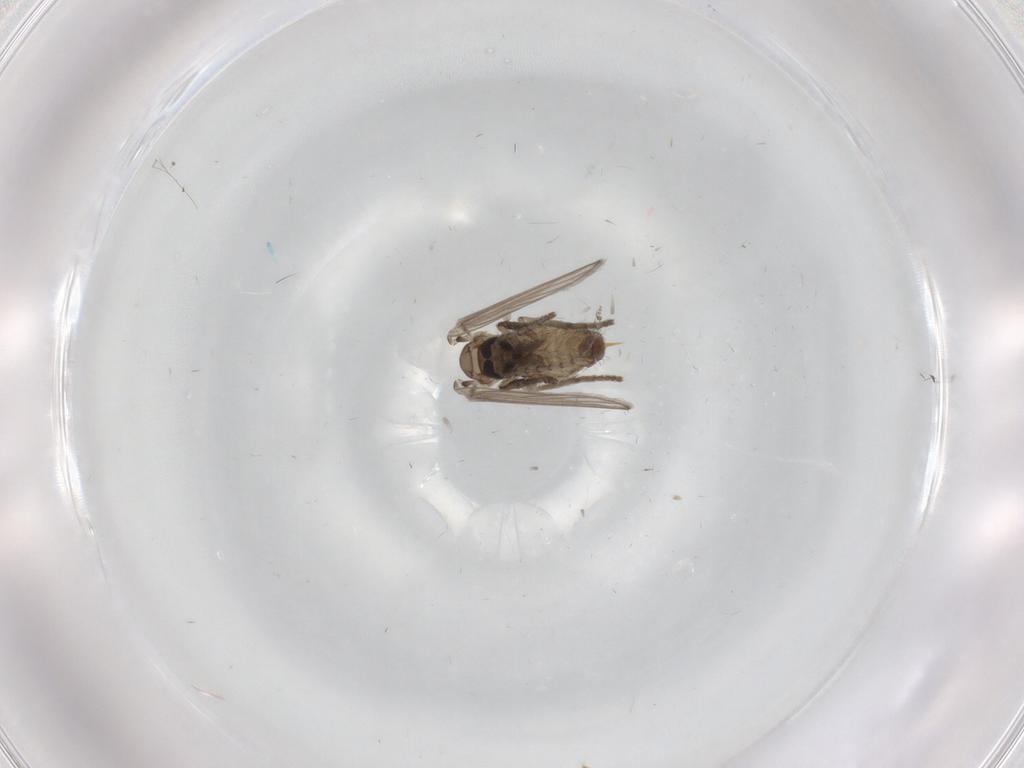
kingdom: Animalia
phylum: Arthropoda
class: Insecta
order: Diptera
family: Psychodidae
